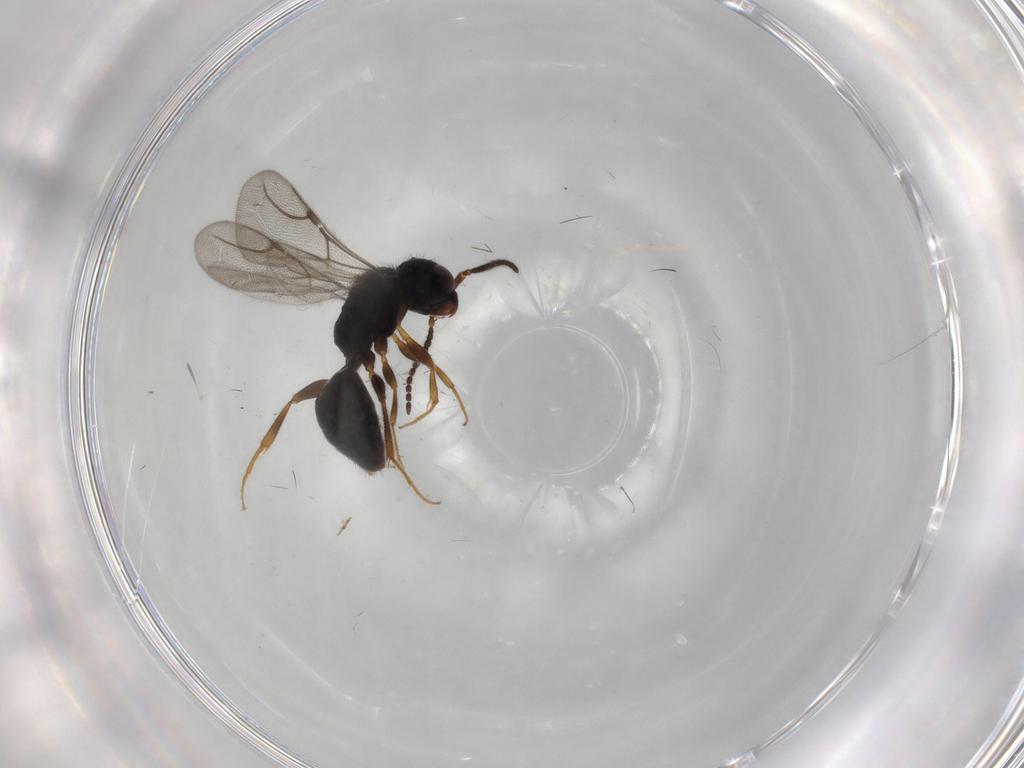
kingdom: Animalia
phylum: Arthropoda
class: Insecta
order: Hymenoptera
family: Bethylidae
